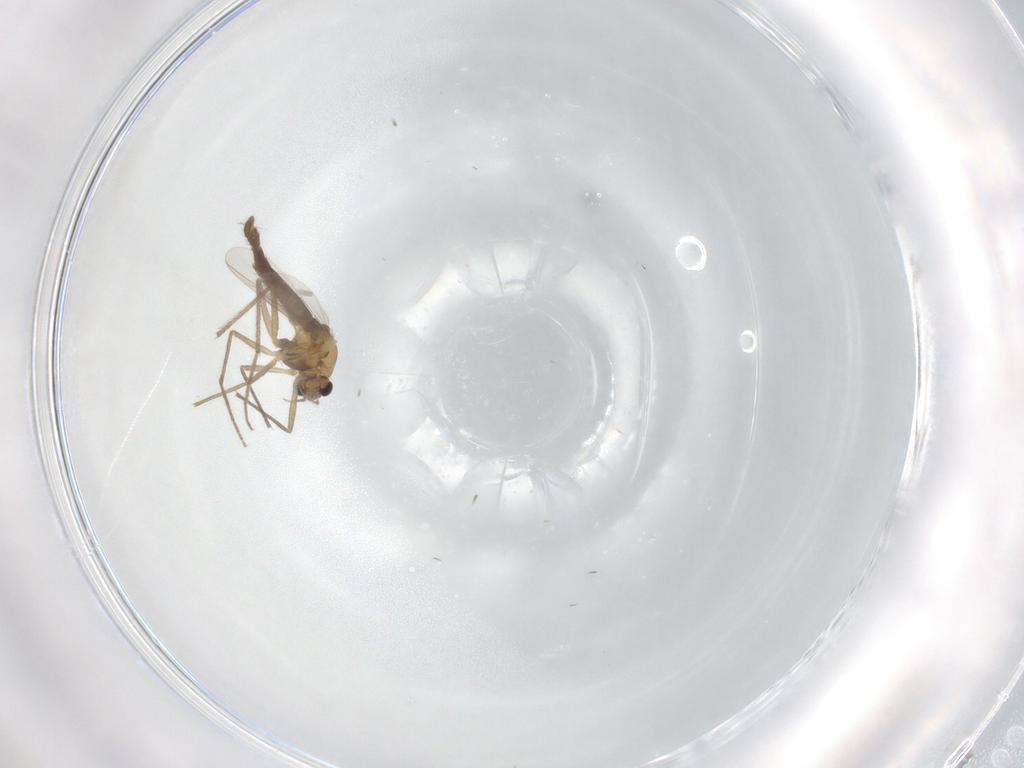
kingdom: Animalia
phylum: Arthropoda
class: Insecta
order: Diptera
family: Chironomidae
